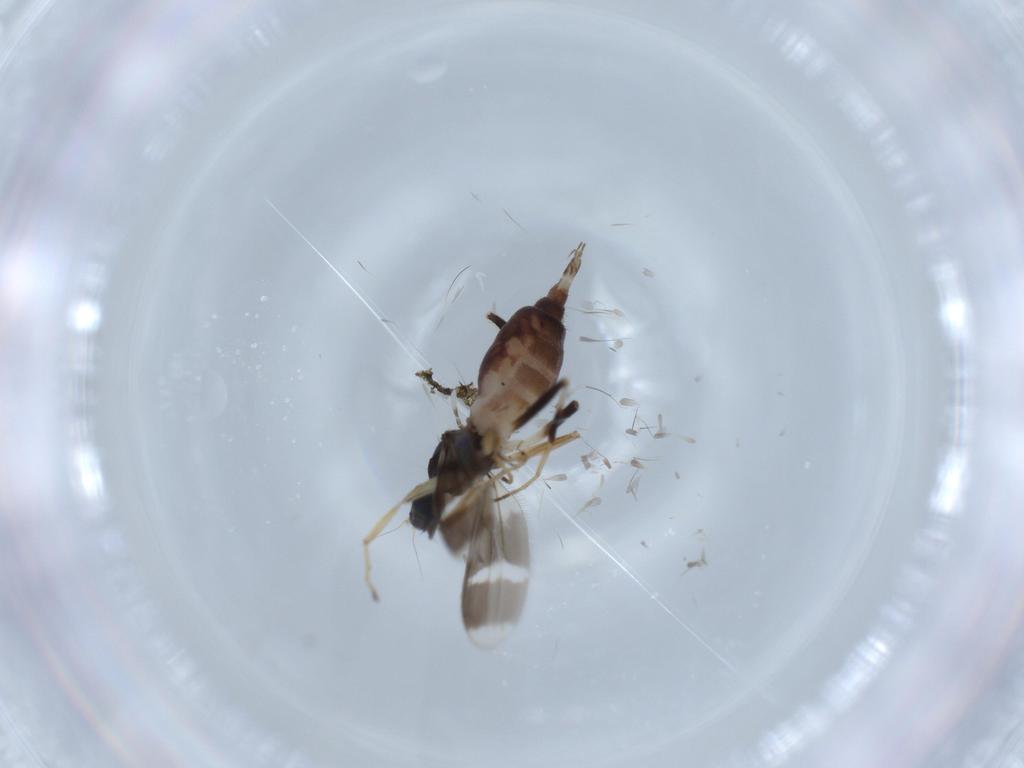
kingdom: Animalia
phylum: Arthropoda
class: Insecta
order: Diptera
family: Hybotidae
